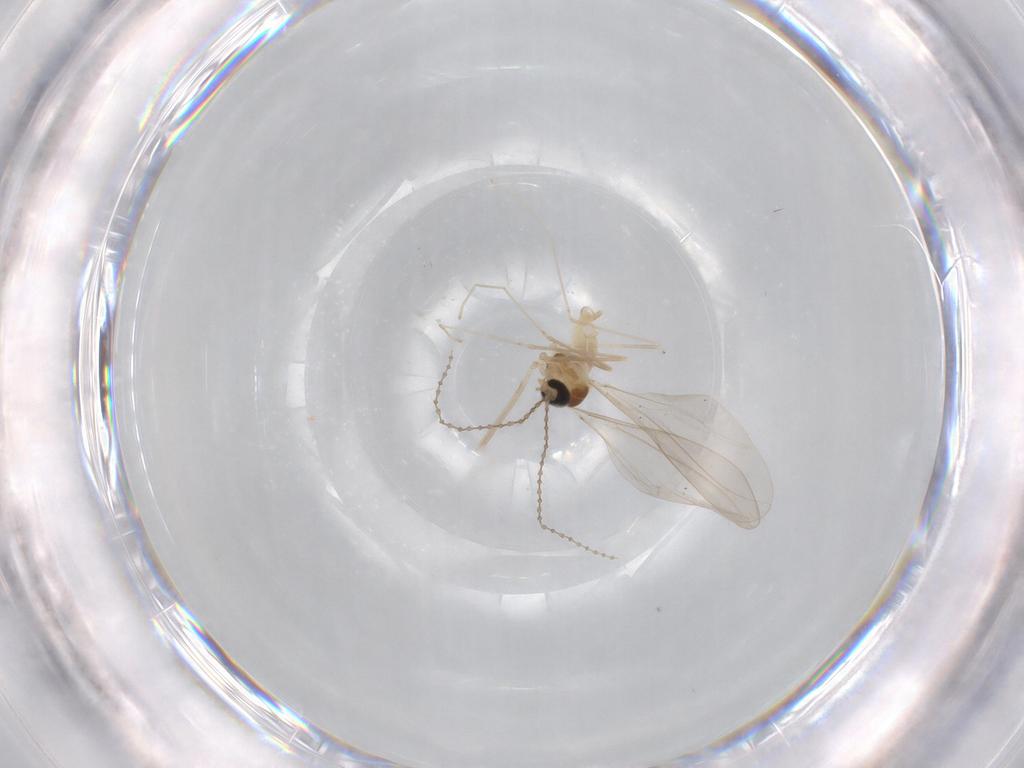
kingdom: Animalia
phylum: Arthropoda
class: Insecta
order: Diptera
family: Cecidomyiidae
